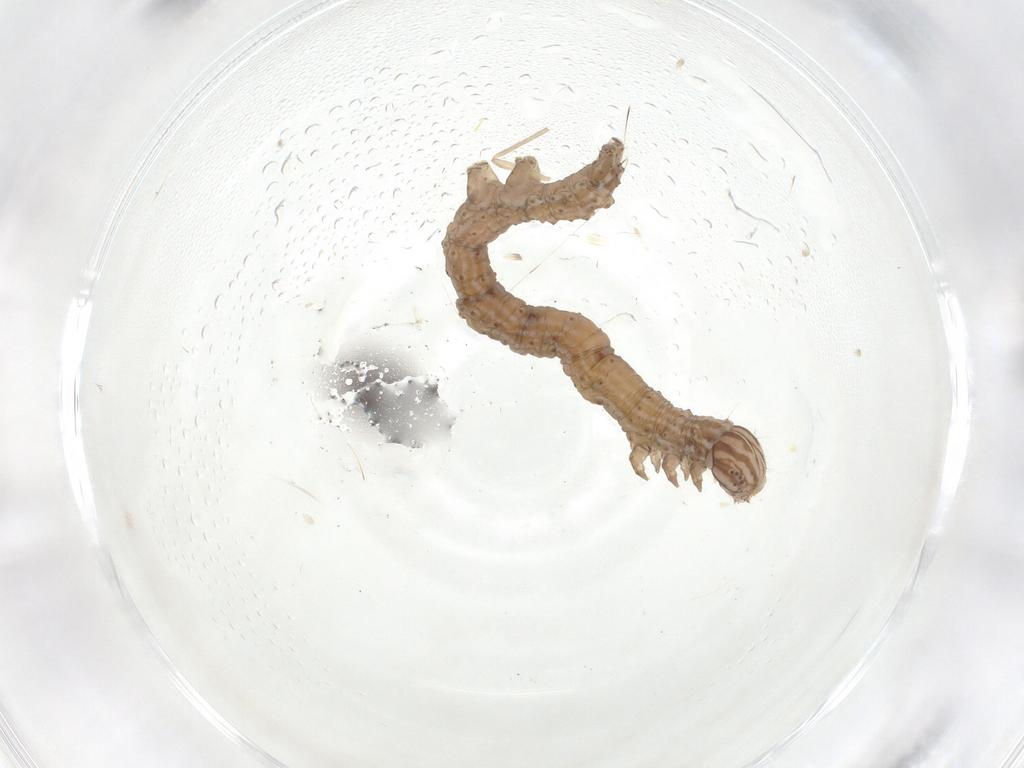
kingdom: Animalia
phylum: Arthropoda
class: Insecta
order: Lepidoptera
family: Erebidae
